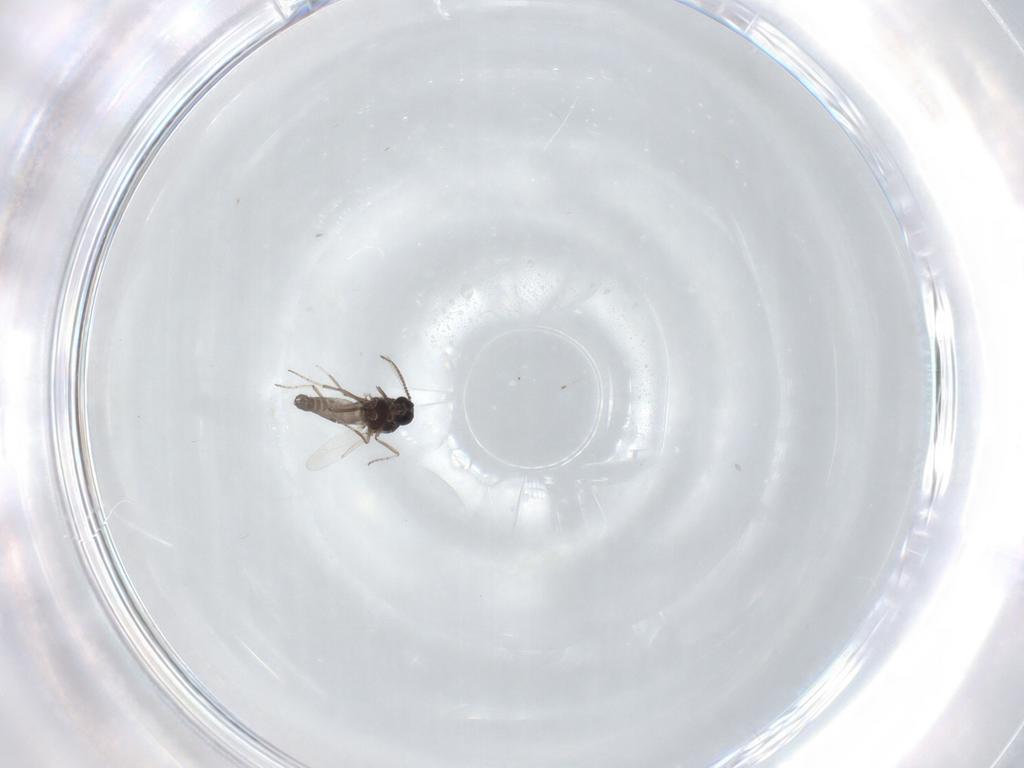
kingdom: Animalia
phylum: Arthropoda
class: Insecta
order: Diptera
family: Ceratopogonidae
